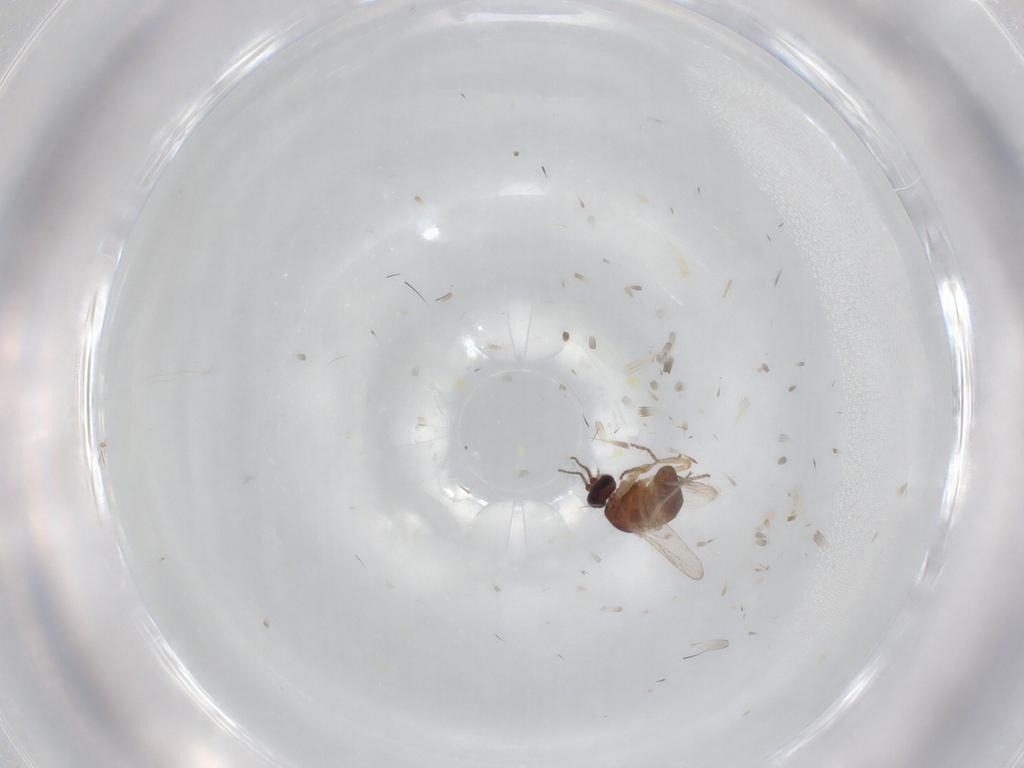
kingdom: Animalia
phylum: Arthropoda
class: Insecta
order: Diptera
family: Ceratopogonidae
